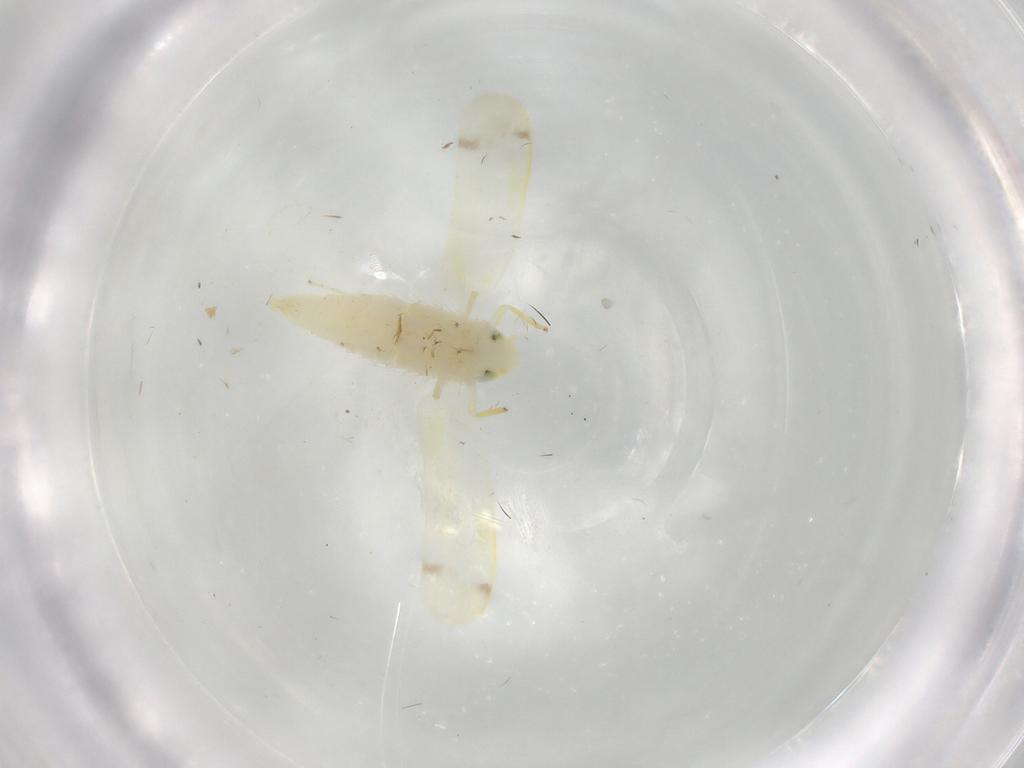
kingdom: Animalia
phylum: Arthropoda
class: Insecta
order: Hemiptera
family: Cicadellidae
